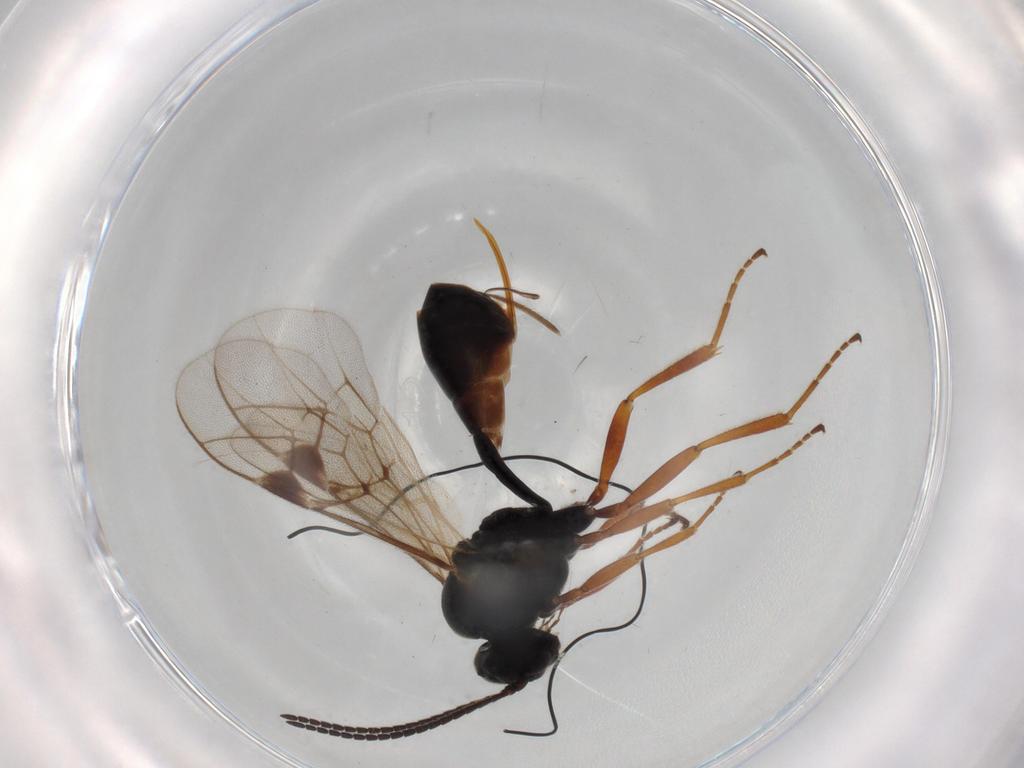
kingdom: Animalia
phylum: Arthropoda
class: Insecta
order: Hymenoptera
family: Ichneumonidae
